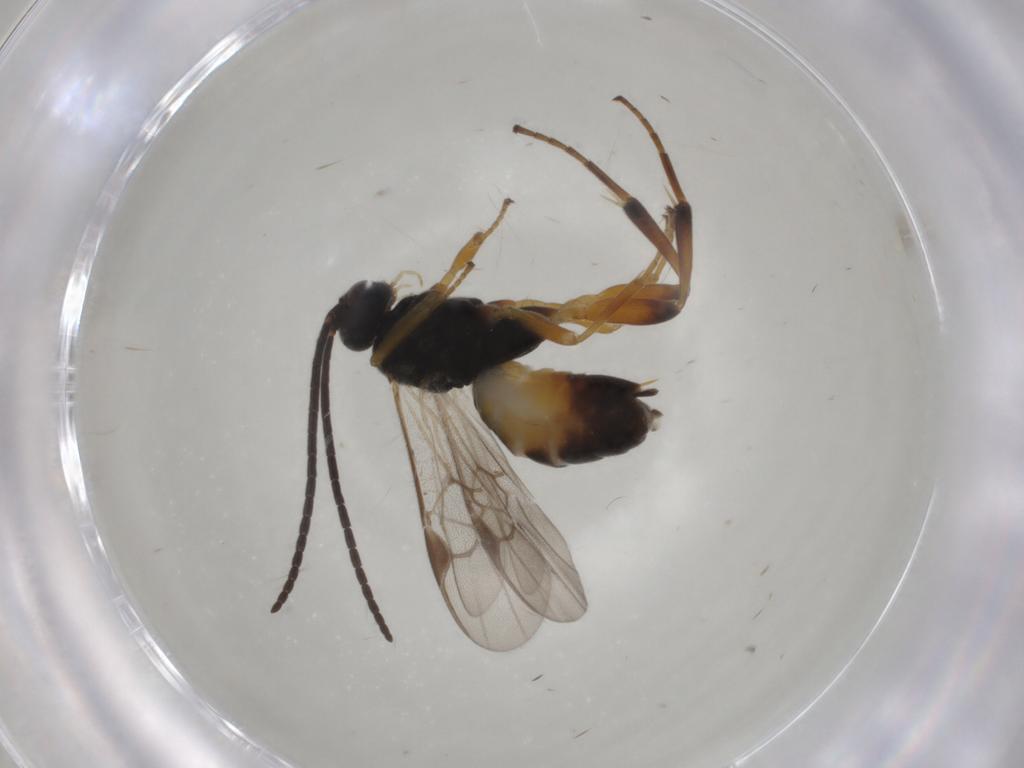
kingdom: Animalia
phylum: Arthropoda
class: Insecta
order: Hymenoptera
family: Braconidae
